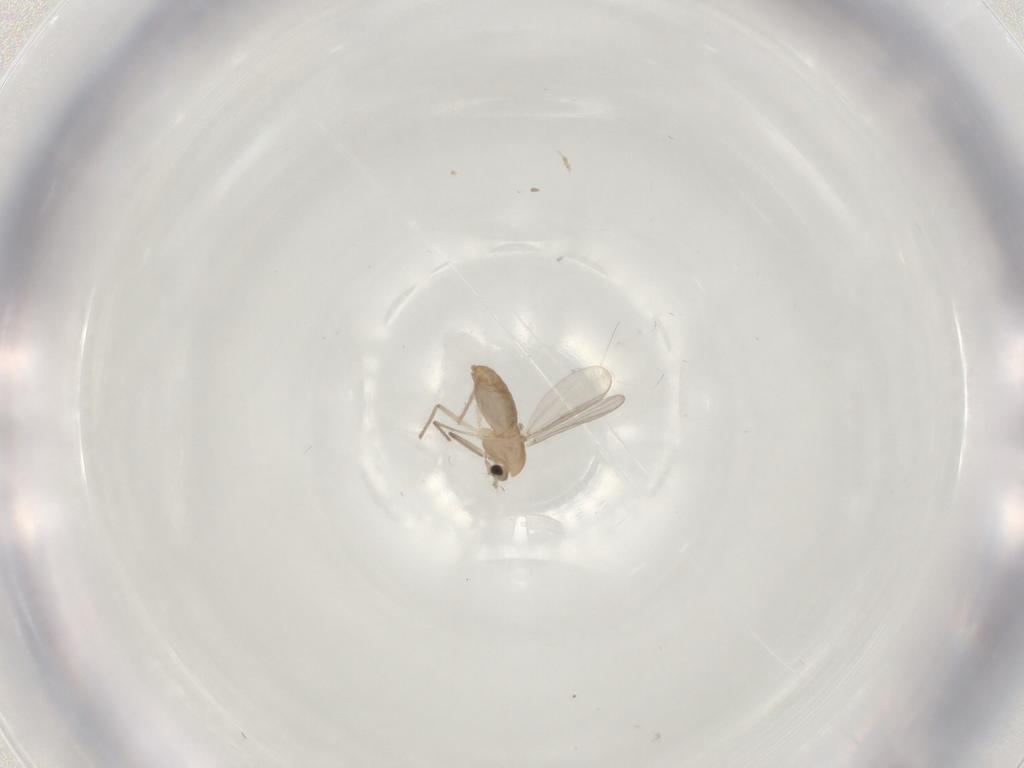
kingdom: Animalia
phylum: Arthropoda
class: Insecta
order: Diptera
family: Chironomidae
